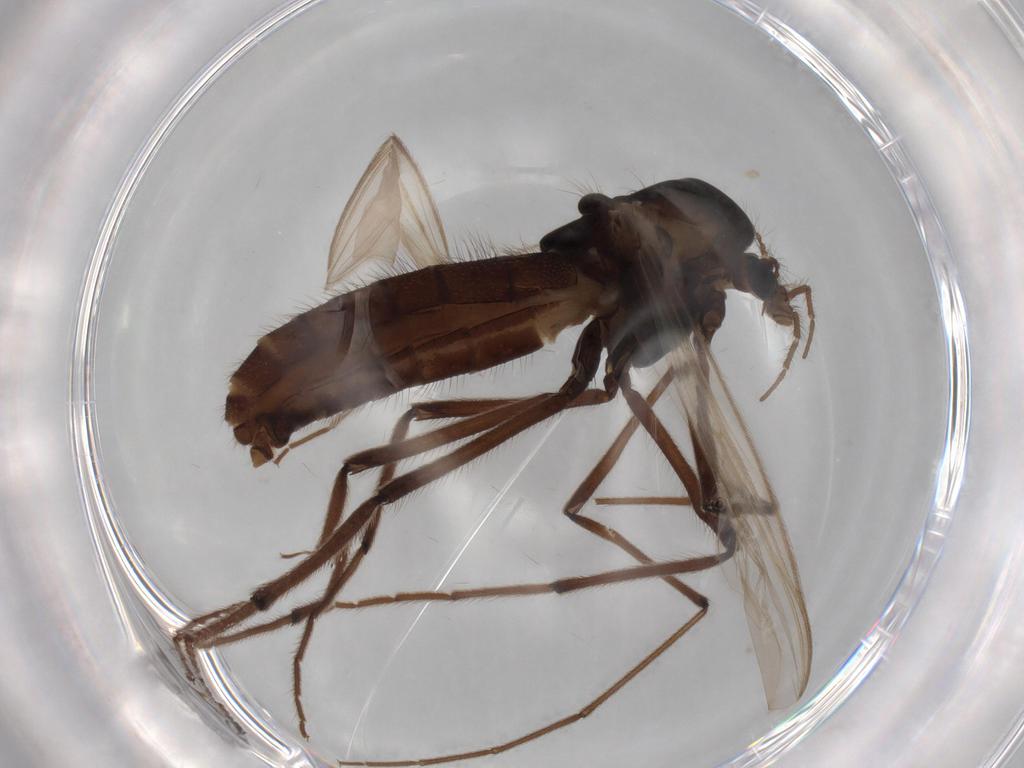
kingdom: Animalia
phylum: Arthropoda
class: Insecta
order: Diptera
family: Chironomidae
